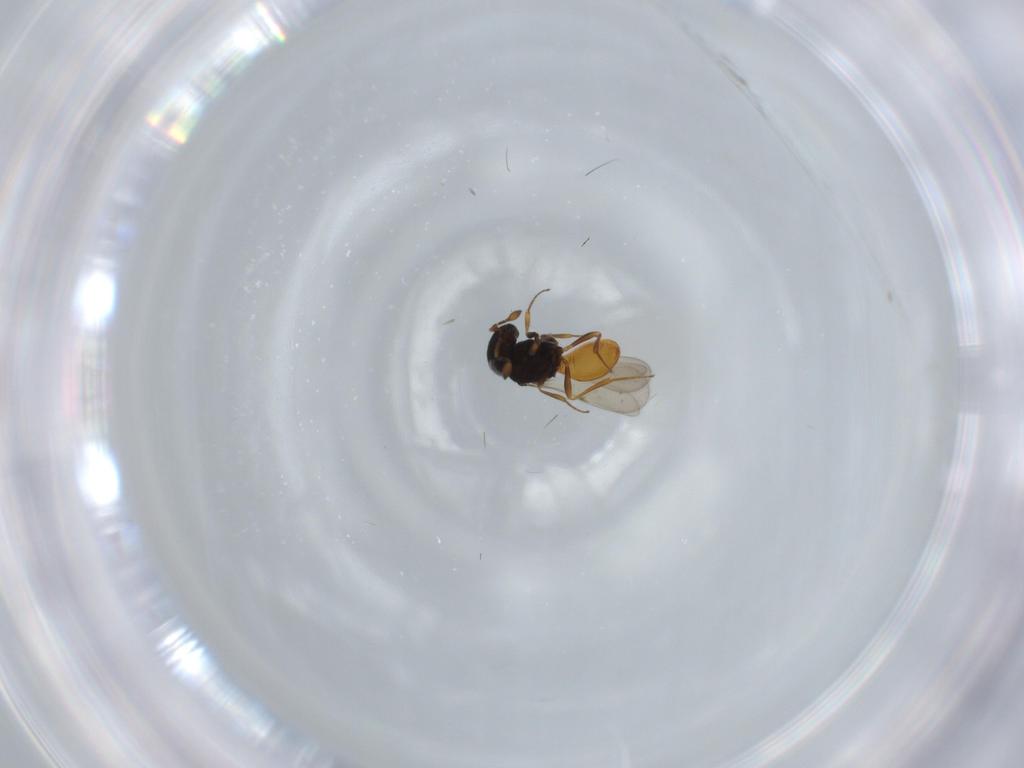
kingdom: Animalia
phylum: Arthropoda
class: Insecta
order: Hymenoptera
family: Scelionidae
